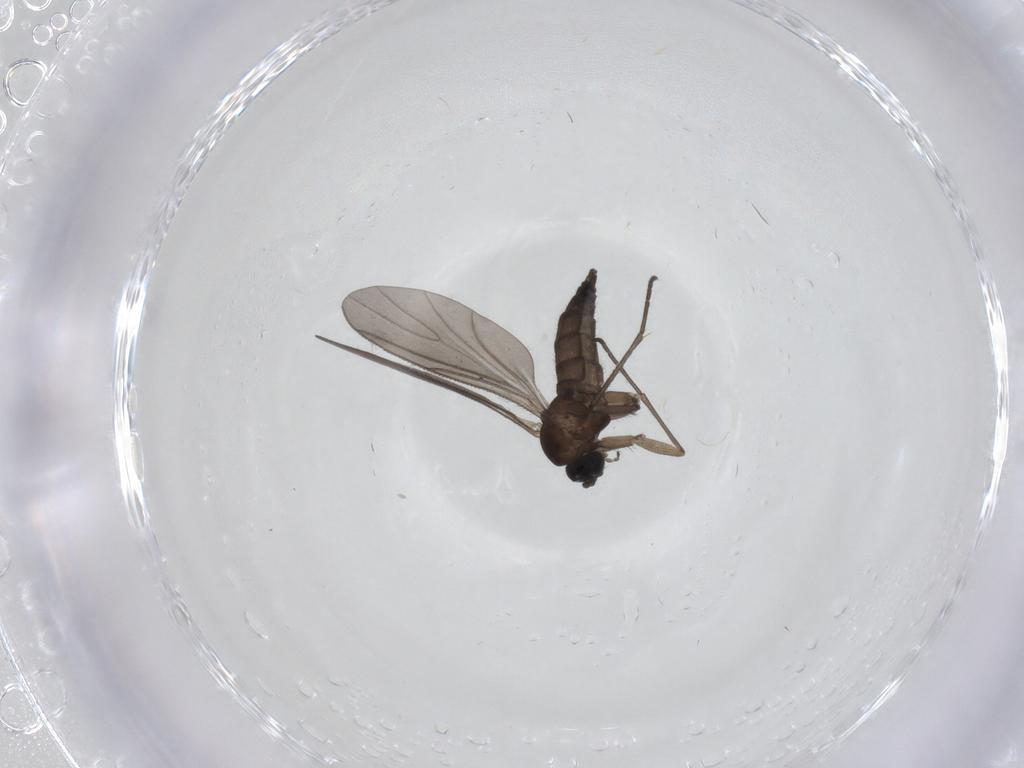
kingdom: Animalia
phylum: Arthropoda
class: Insecta
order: Diptera
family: Sciaridae
